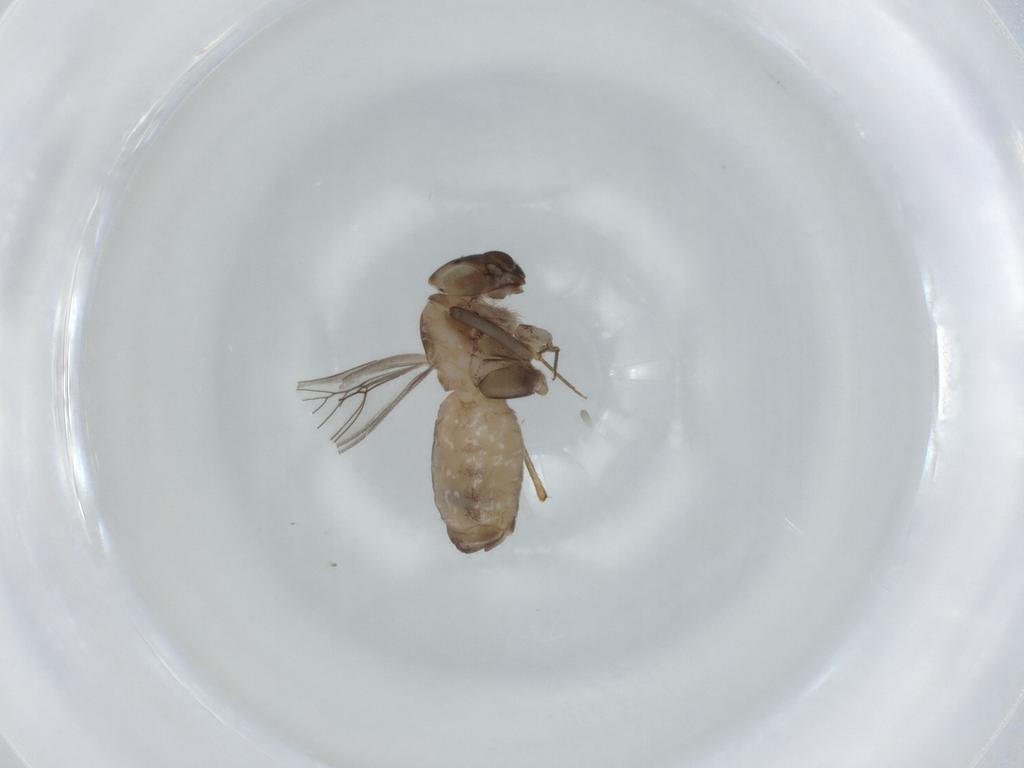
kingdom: Animalia
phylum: Arthropoda
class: Insecta
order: Psocodea
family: Lepidopsocidae
